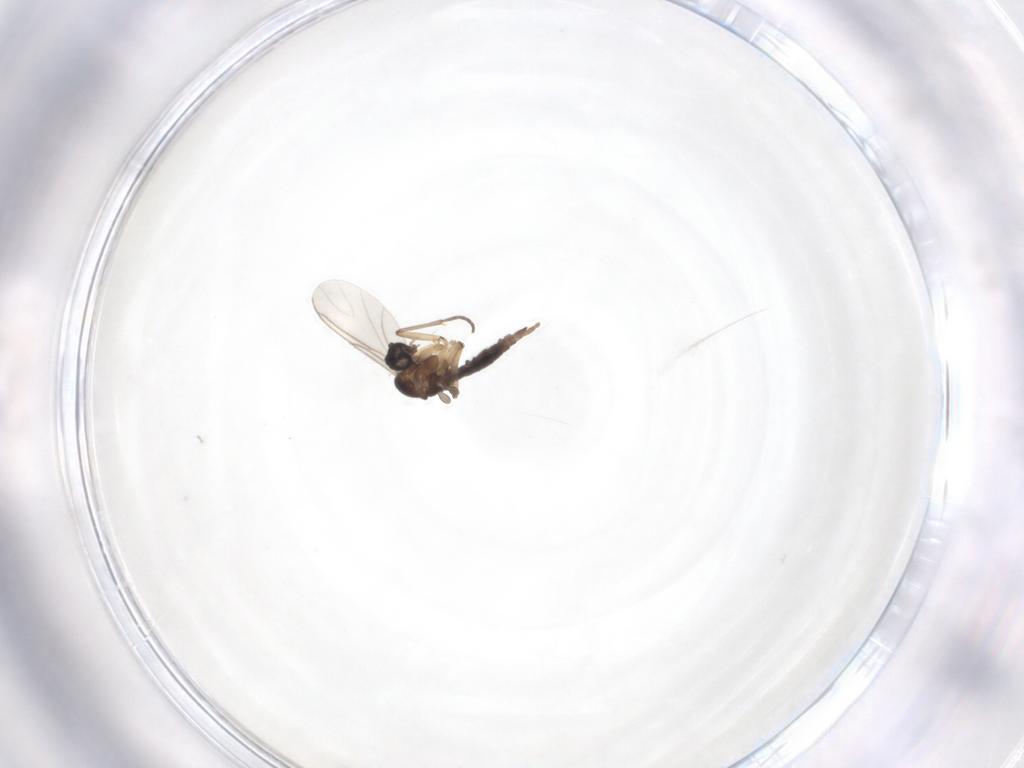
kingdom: Animalia
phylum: Arthropoda
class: Insecta
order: Diptera
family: Sciaridae
